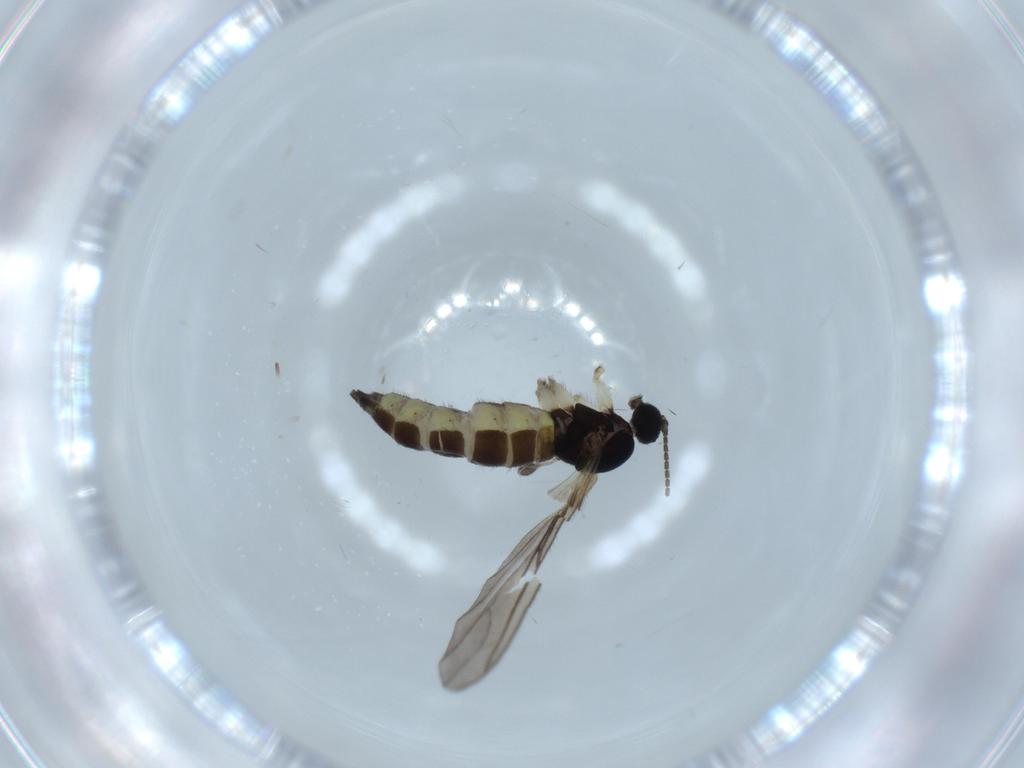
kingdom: Animalia
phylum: Arthropoda
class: Insecta
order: Diptera
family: Sciaridae
